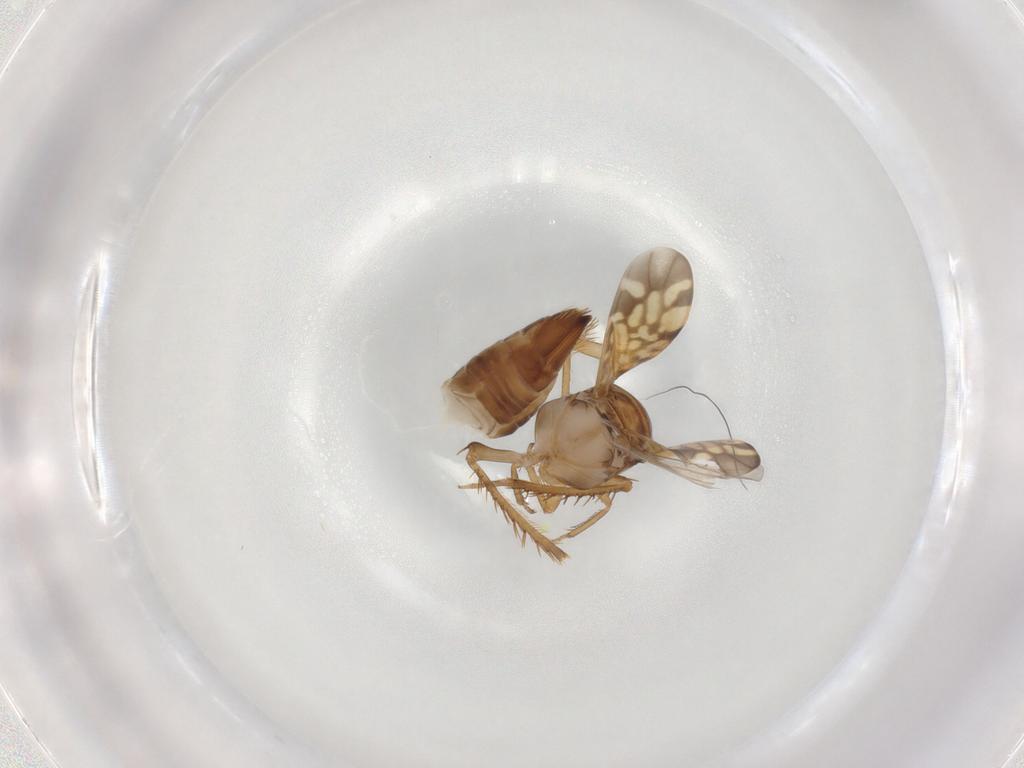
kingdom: Animalia
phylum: Arthropoda
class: Insecta
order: Hemiptera
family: Cicadellidae
